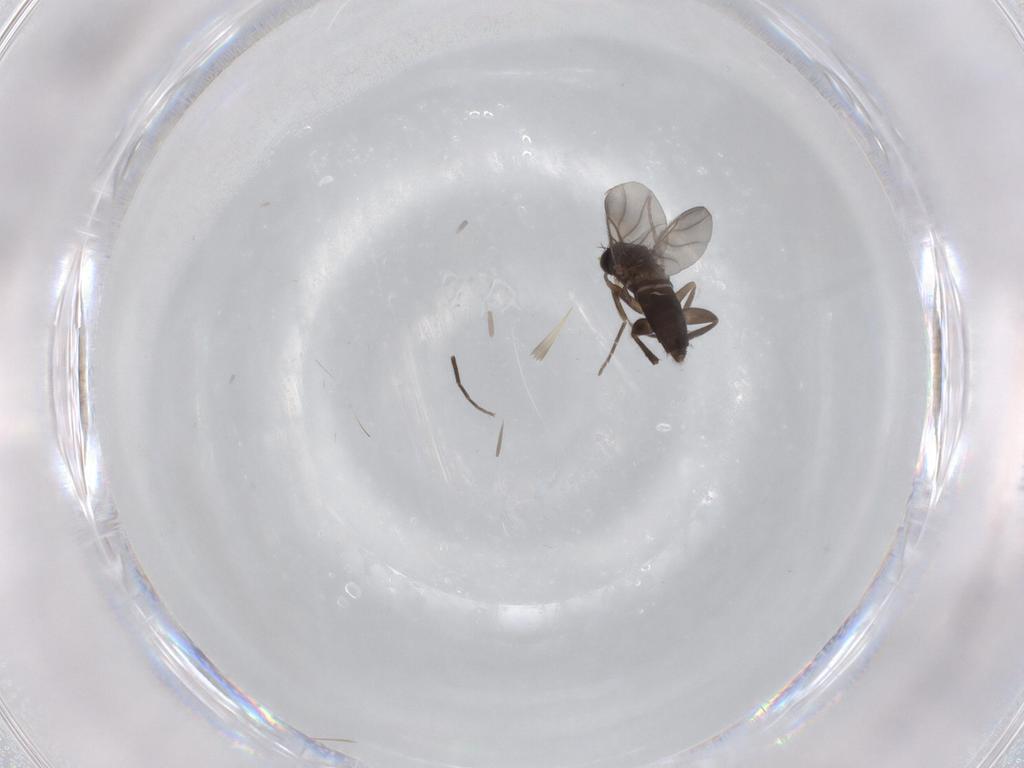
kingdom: Animalia
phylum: Arthropoda
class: Insecta
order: Diptera
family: Phoridae
